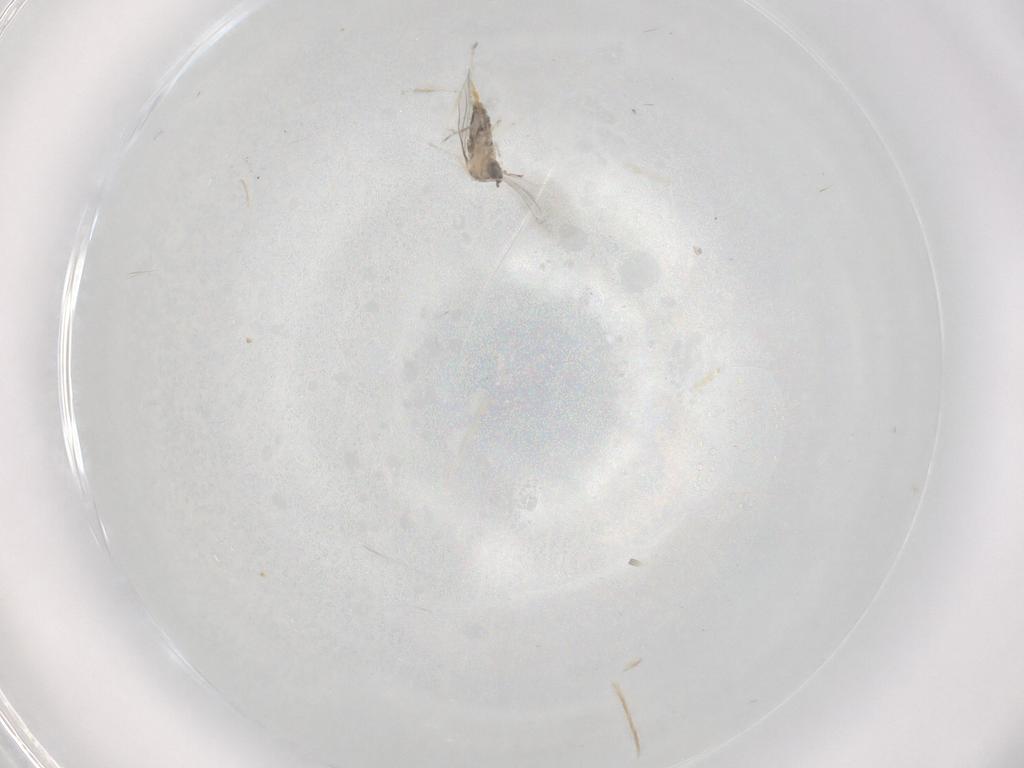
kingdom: Animalia
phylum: Arthropoda
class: Insecta
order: Diptera
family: Cecidomyiidae
